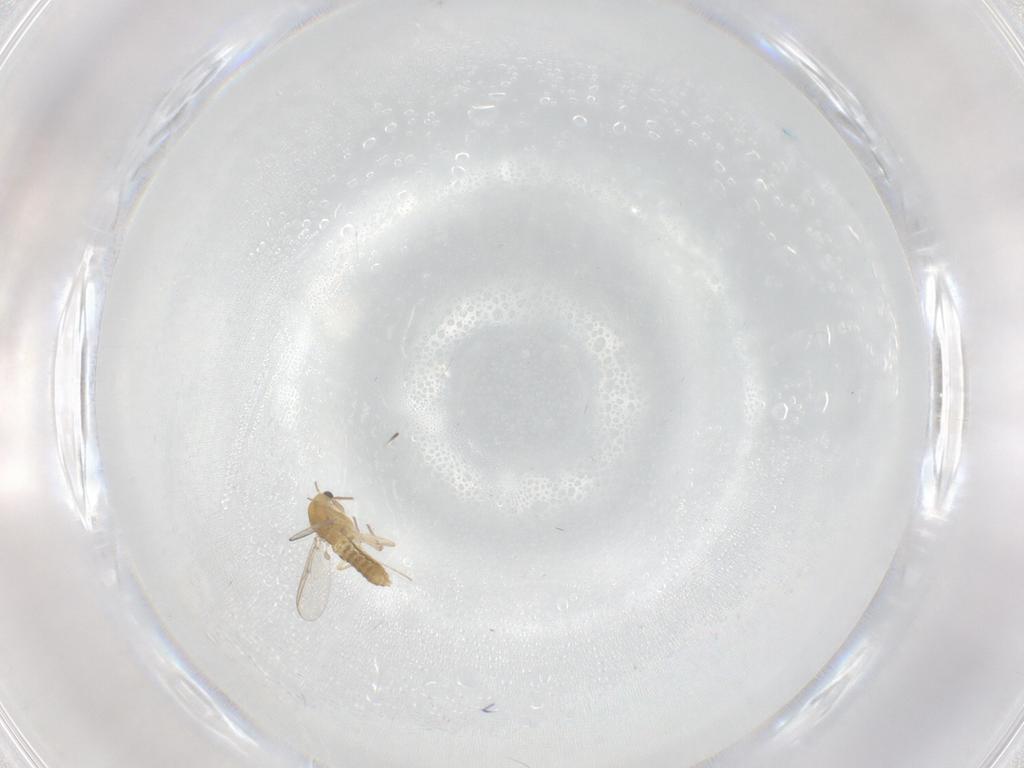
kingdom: Animalia
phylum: Arthropoda
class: Insecta
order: Diptera
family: Chironomidae
